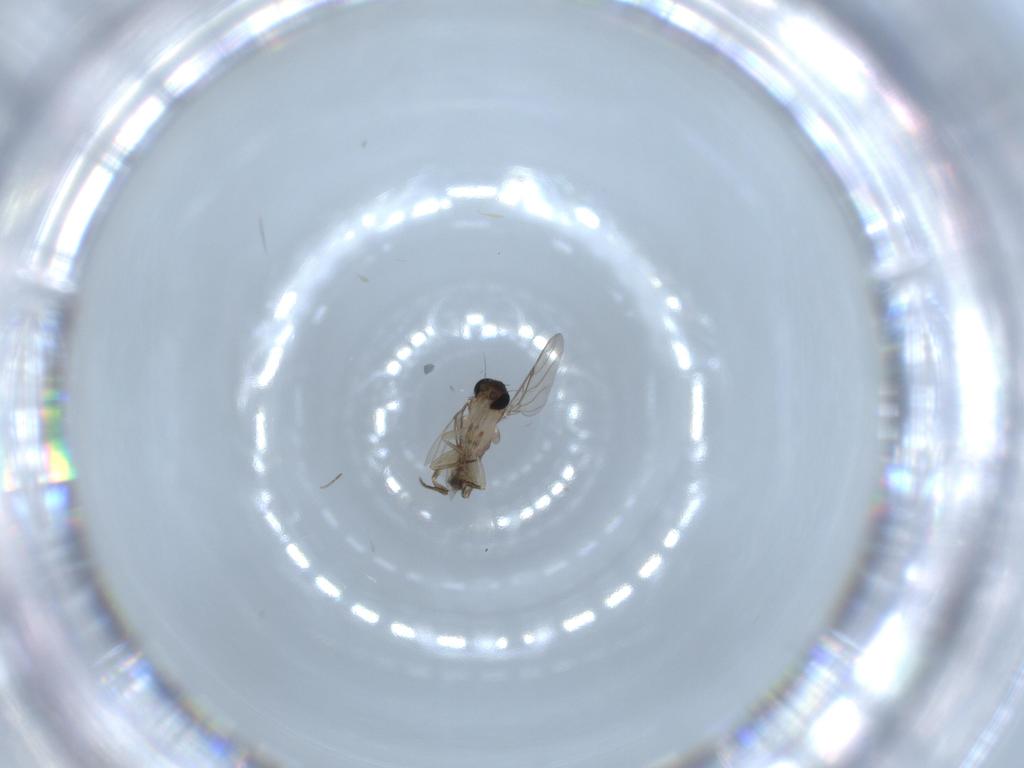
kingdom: Animalia
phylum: Arthropoda
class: Insecta
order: Diptera
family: Phoridae
